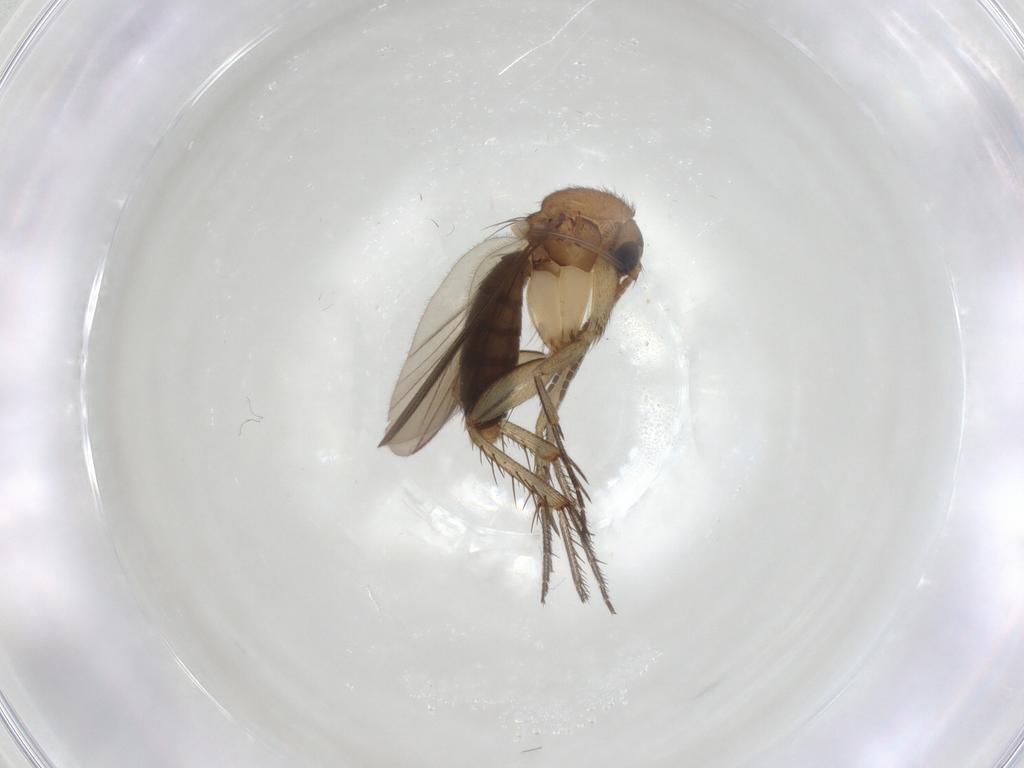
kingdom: Animalia
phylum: Arthropoda
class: Insecta
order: Diptera
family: Mycetophilidae
